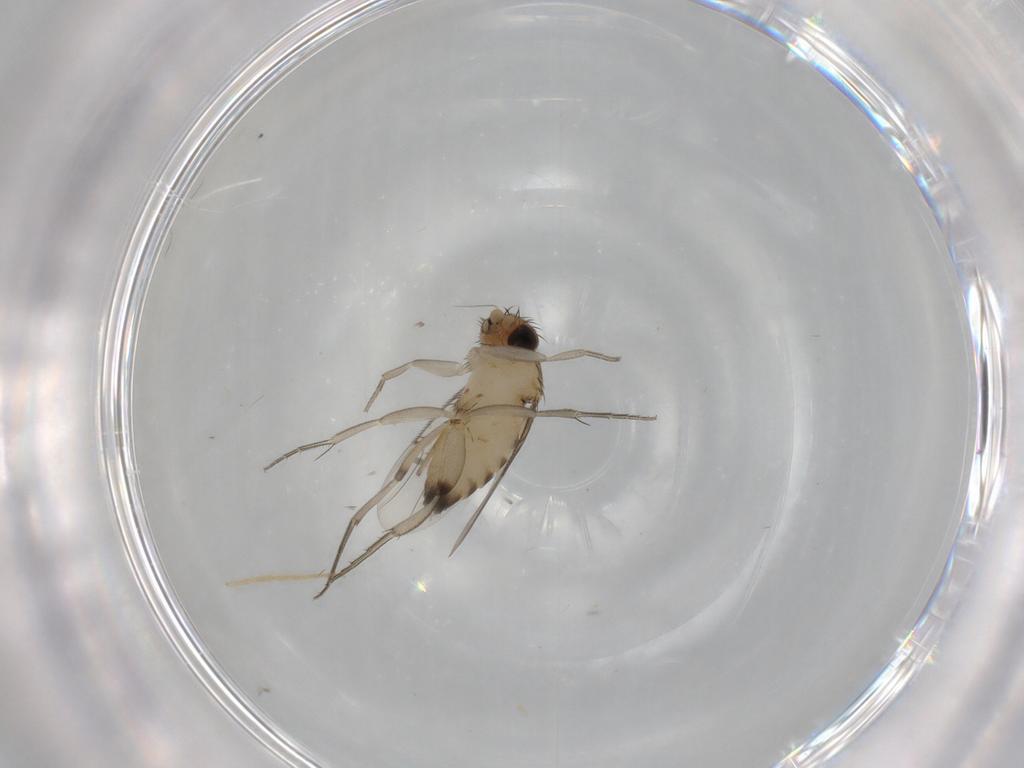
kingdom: Animalia
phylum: Arthropoda
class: Insecta
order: Diptera
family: Phoridae
